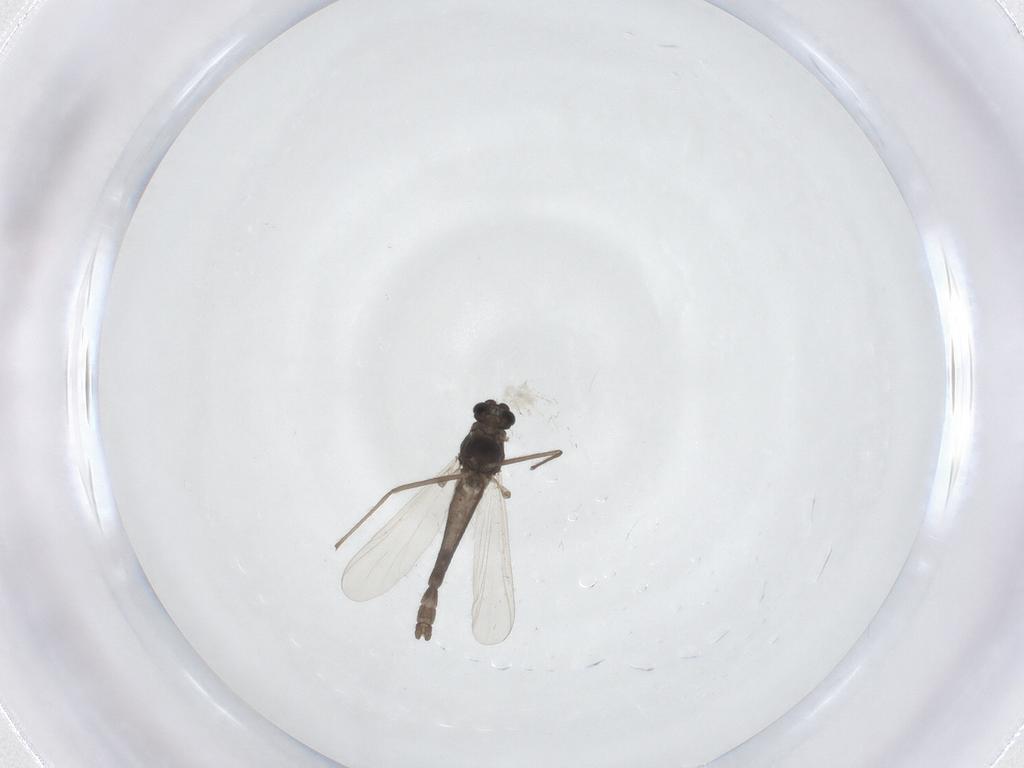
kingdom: Animalia
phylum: Arthropoda
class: Insecta
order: Diptera
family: Chironomidae
